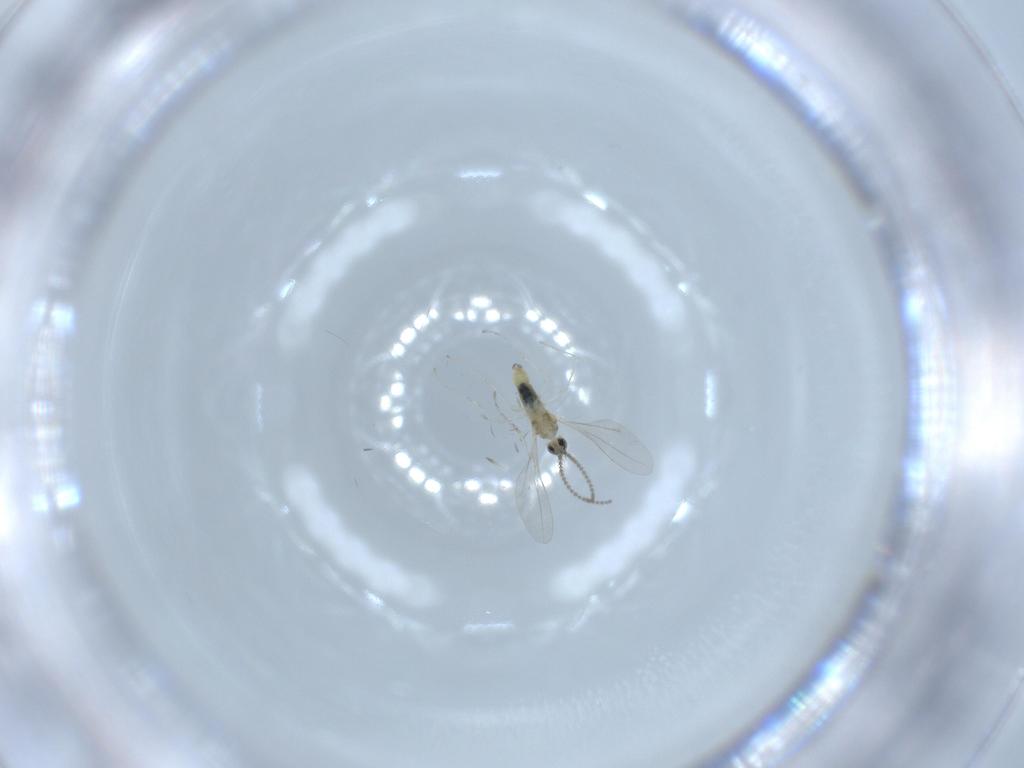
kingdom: Animalia
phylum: Arthropoda
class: Insecta
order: Diptera
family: Cecidomyiidae
